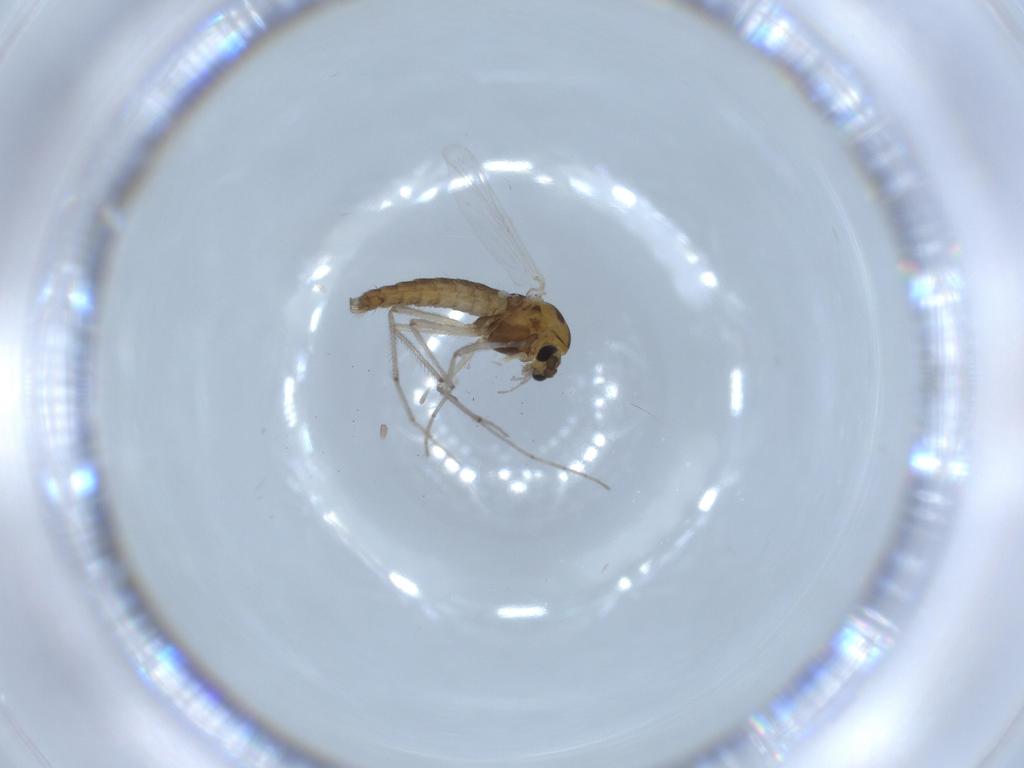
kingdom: Animalia
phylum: Arthropoda
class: Insecta
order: Diptera
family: Chironomidae
